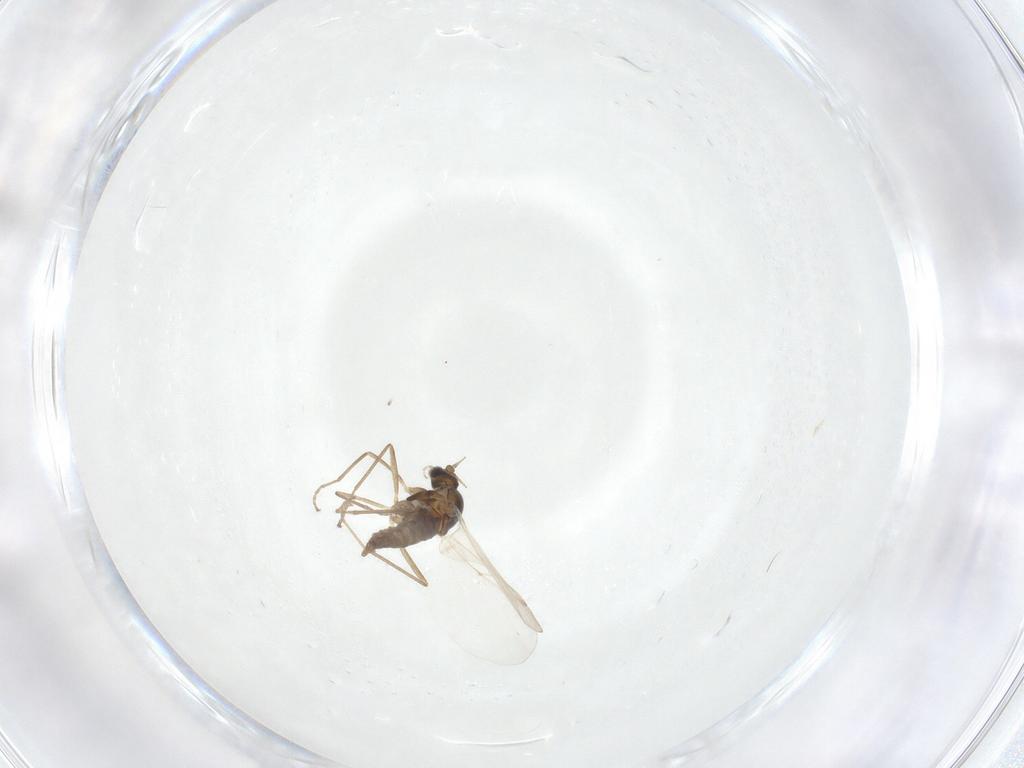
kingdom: Animalia
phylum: Arthropoda
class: Insecta
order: Diptera
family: Cecidomyiidae
